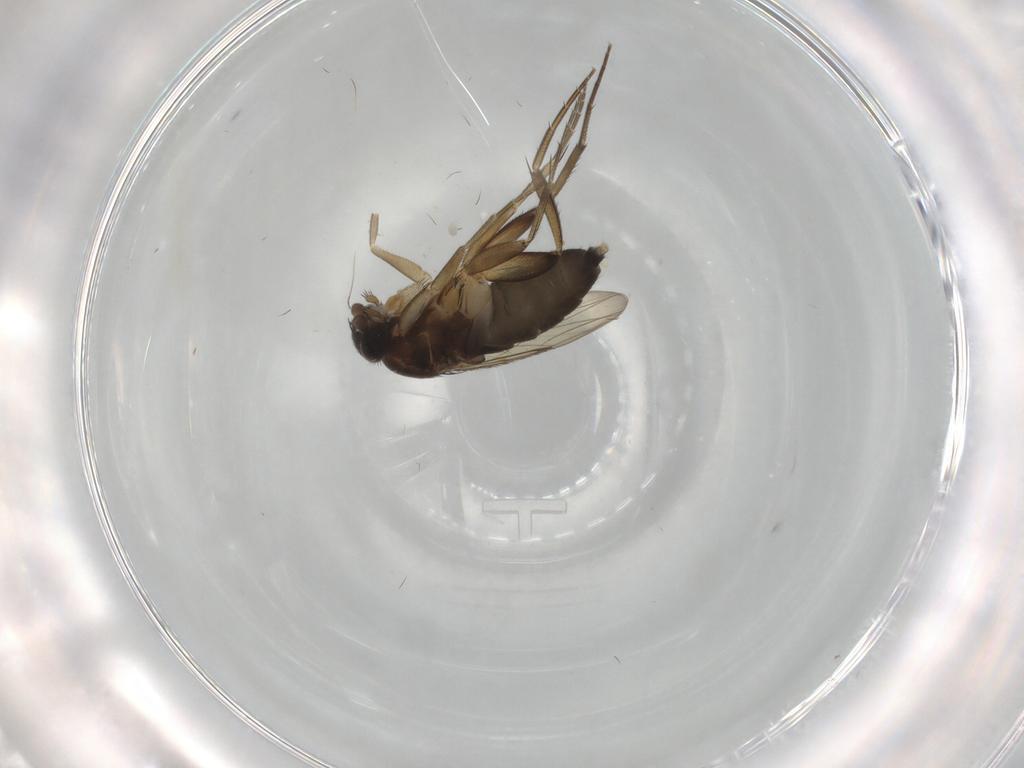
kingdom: Animalia
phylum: Arthropoda
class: Insecta
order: Diptera
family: Phoridae
